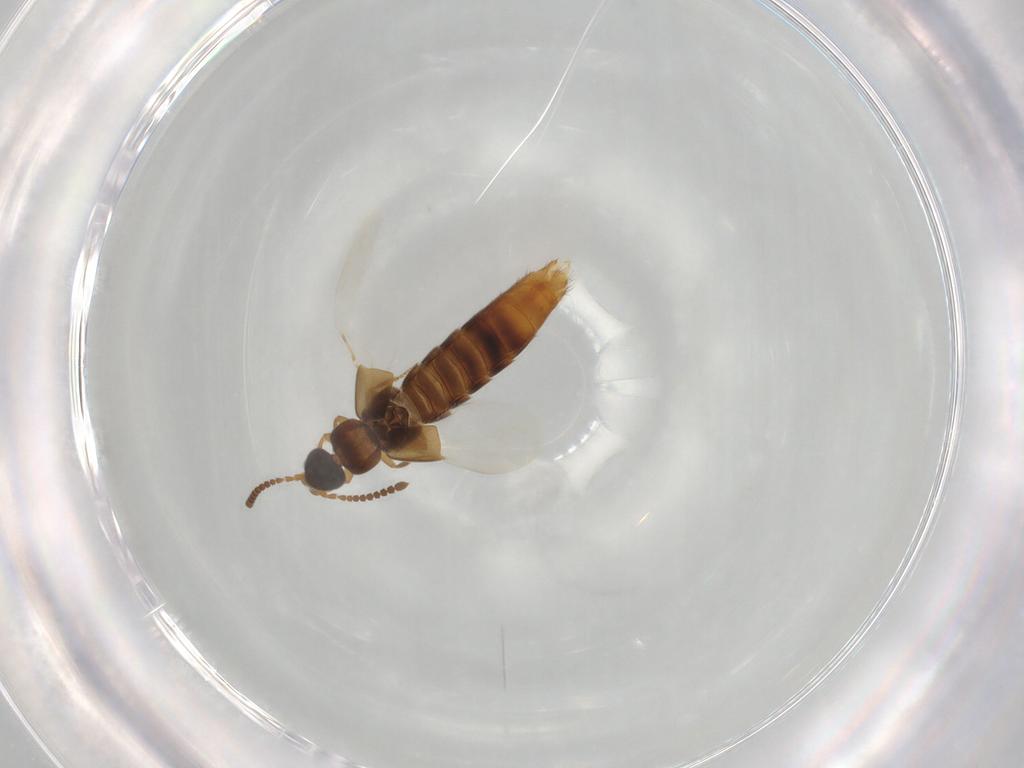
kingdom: Animalia
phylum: Arthropoda
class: Insecta
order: Coleoptera
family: Staphylinidae
